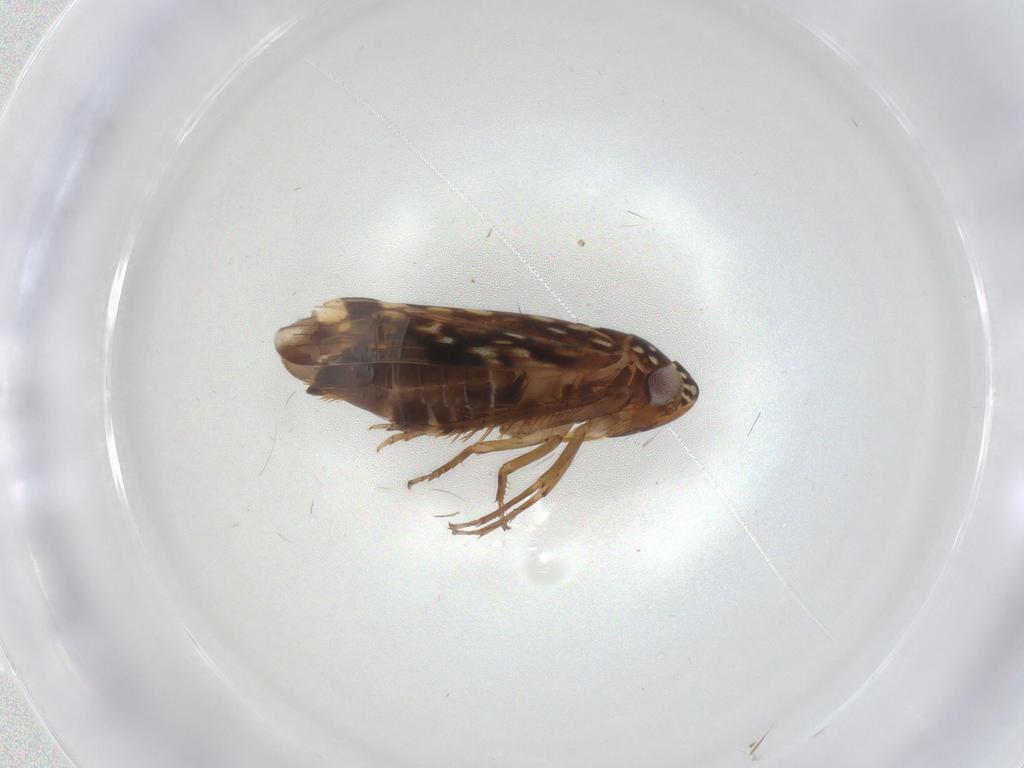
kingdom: Animalia
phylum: Arthropoda
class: Insecta
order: Hemiptera
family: Cicadellidae
